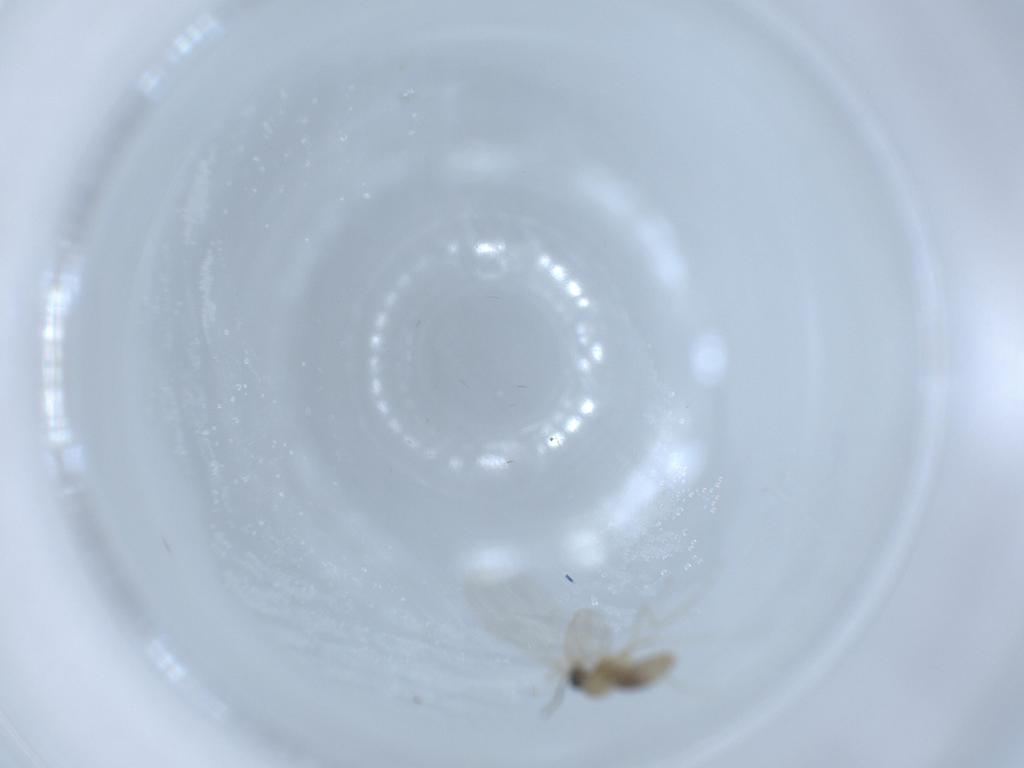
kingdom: Animalia
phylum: Arthropoda
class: Insecta
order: Diptera
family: Cecidomyiidae
